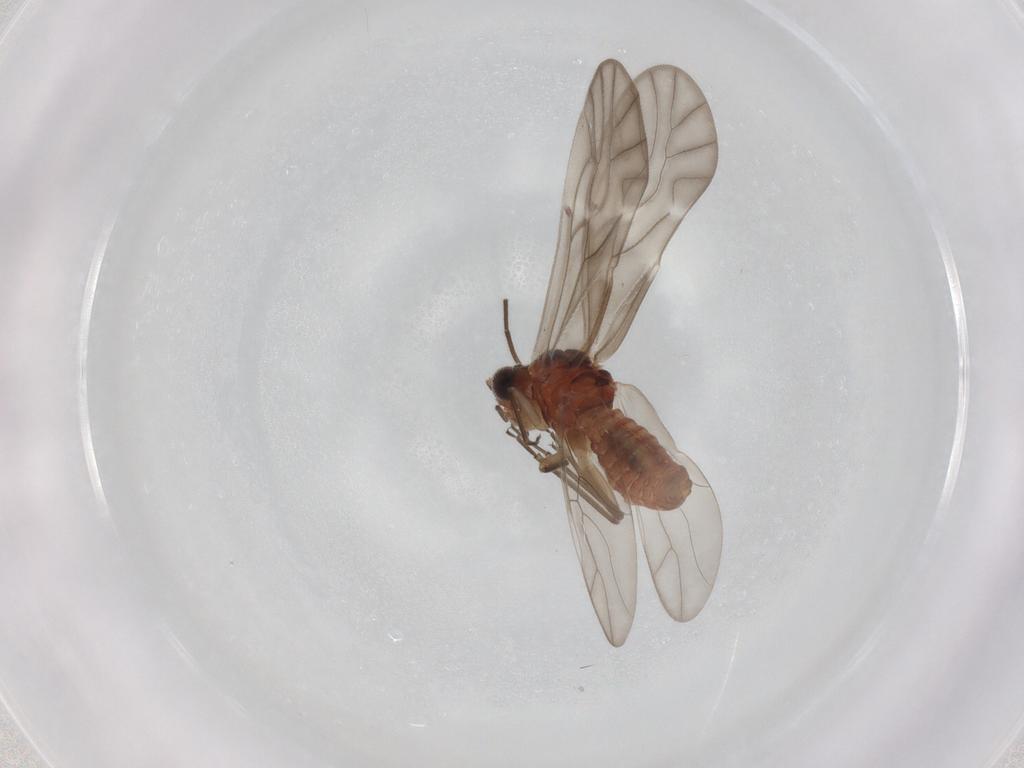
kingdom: Animalia
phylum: Arthropoda
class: Insecta
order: Psocodea
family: Caeciliusidae
